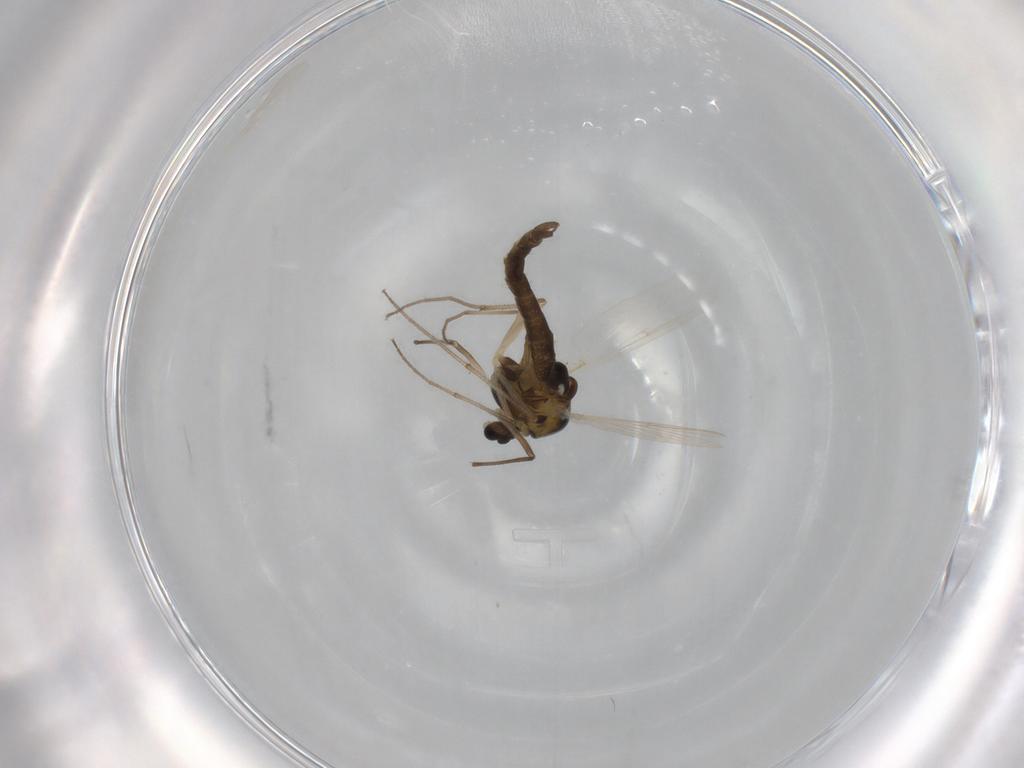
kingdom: Animalia
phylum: Arthropoda
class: Insecta
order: Diptera
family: Chironomidae
